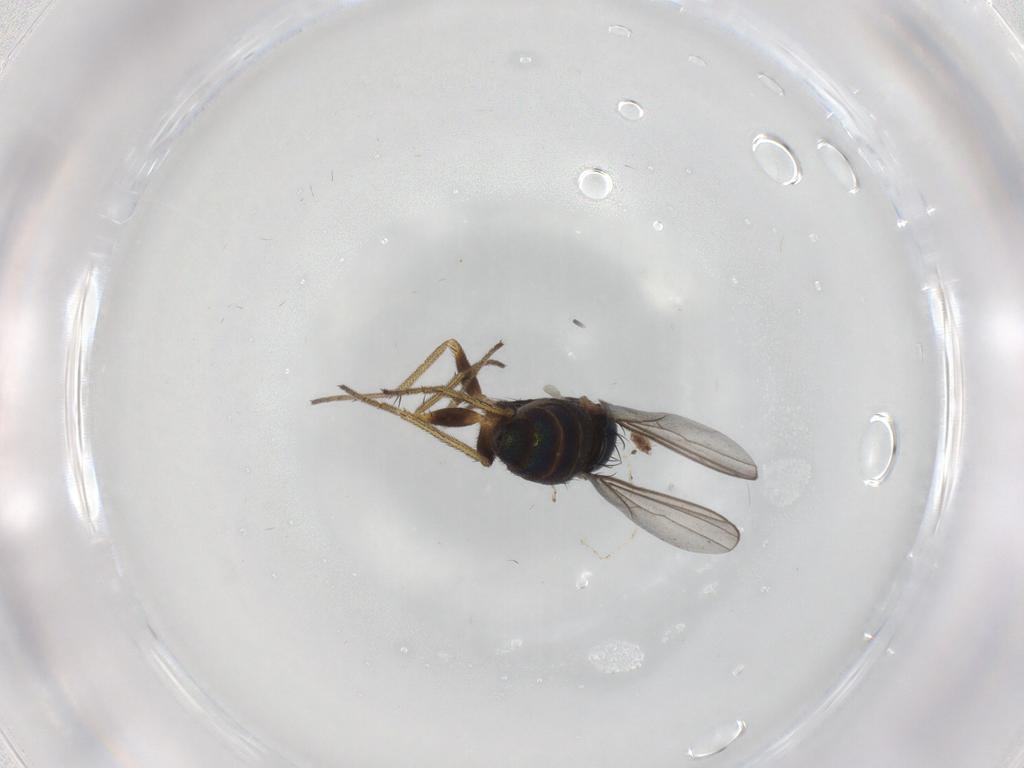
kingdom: Animalia
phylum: Arthropoda
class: Insecta
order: Diptera
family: Dolichopodidae
